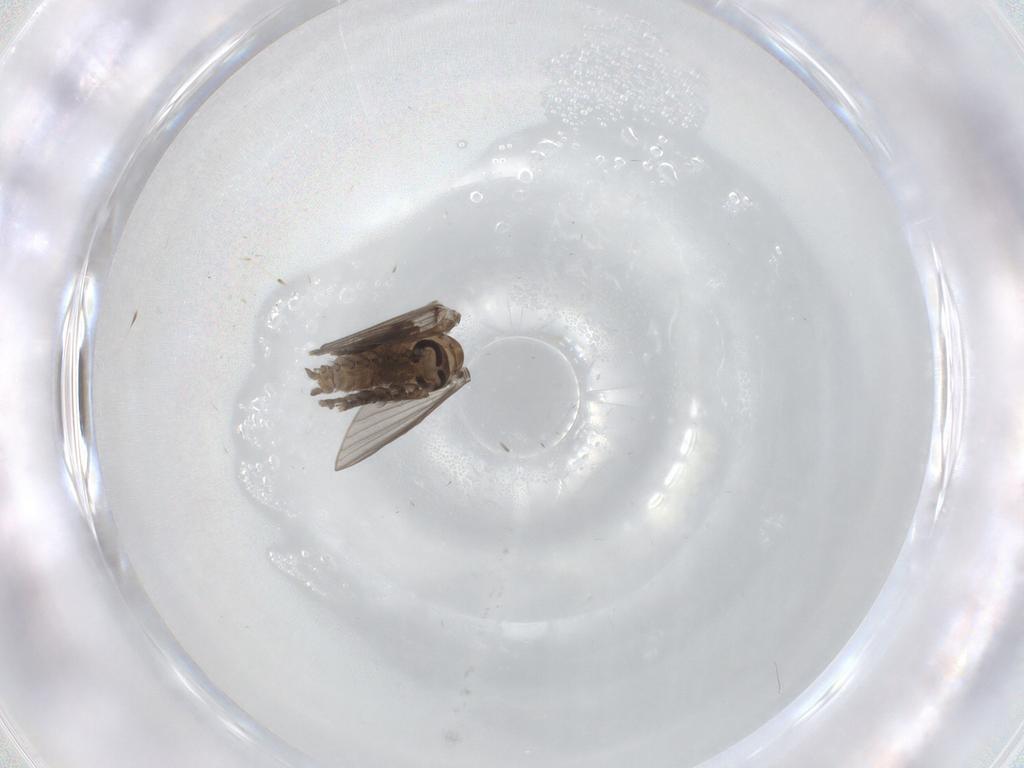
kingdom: Animalia
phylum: Arthropoda
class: Insecta
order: Diptera
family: Psychodidae
